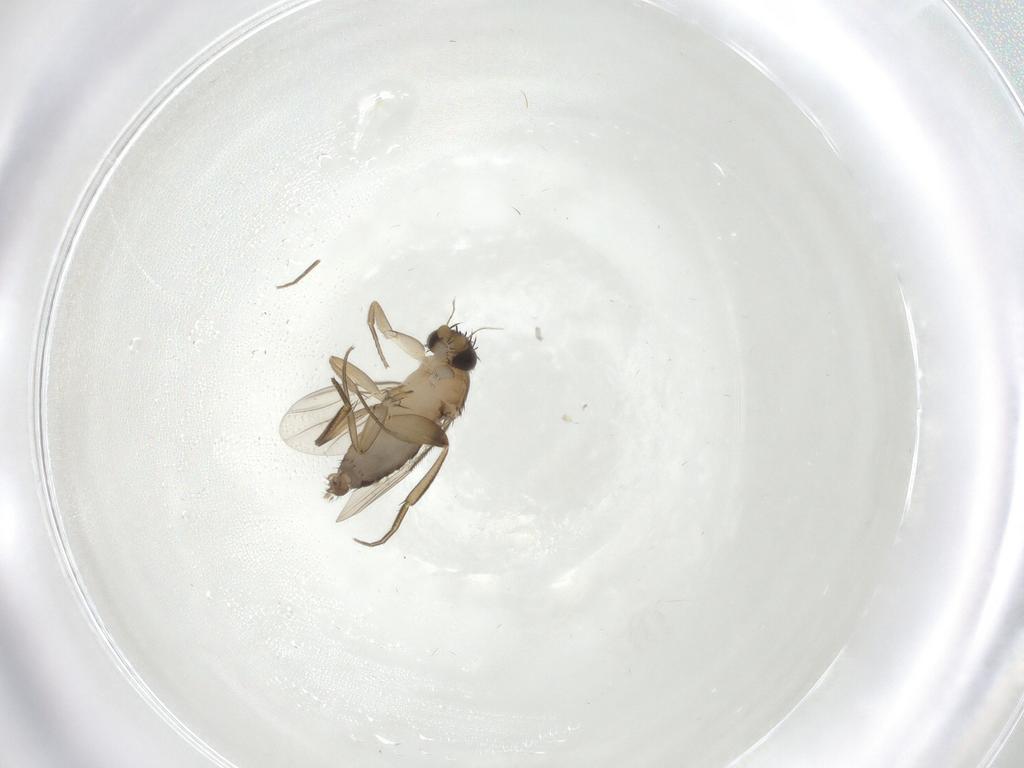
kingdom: Animalia
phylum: Arthropoda
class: Insecta
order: Diptera
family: Phoridae
